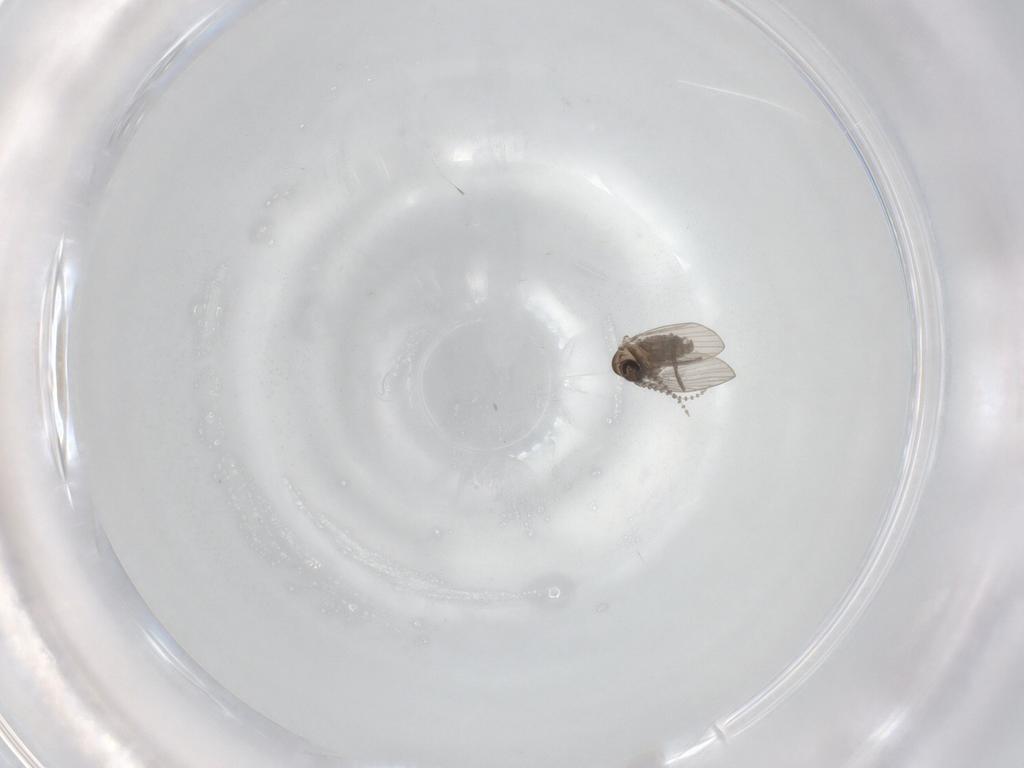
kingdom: Animalia
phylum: Arthropoda
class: Insecta
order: Diptera
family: Psychodidae
